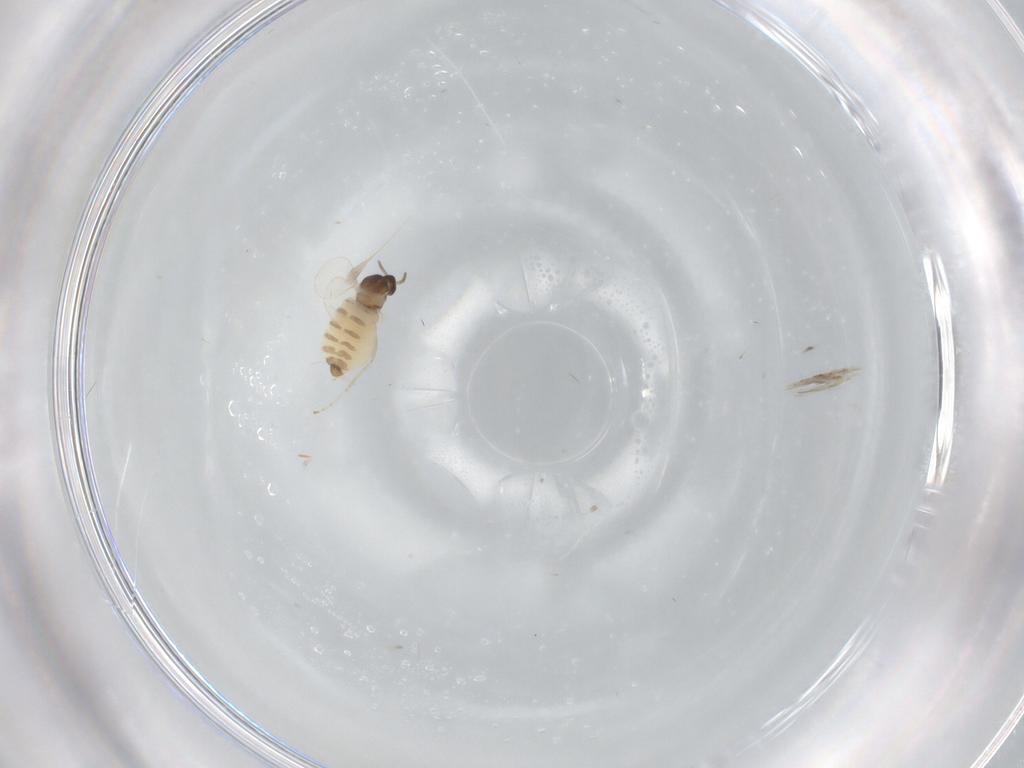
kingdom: Animalia
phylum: Arthropoda
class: Insecta
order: Diptera
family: Cecidomyiidae
